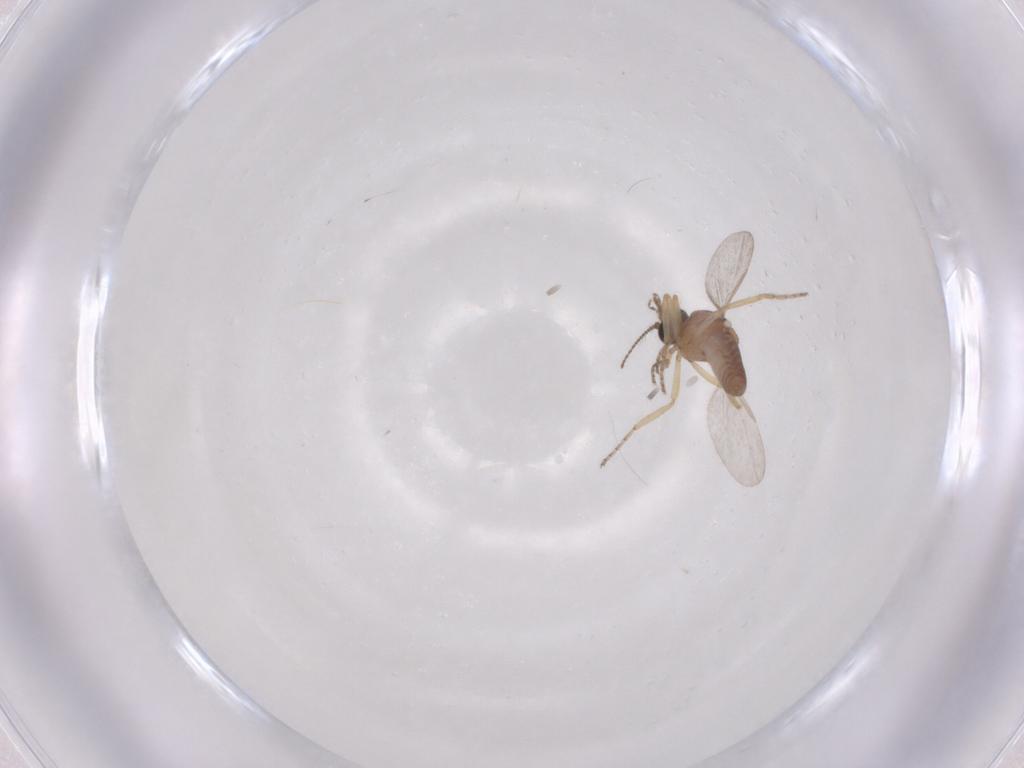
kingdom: Animalia
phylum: Arthropoda
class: Insecta
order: Diptera
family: Ceratopogonidae
